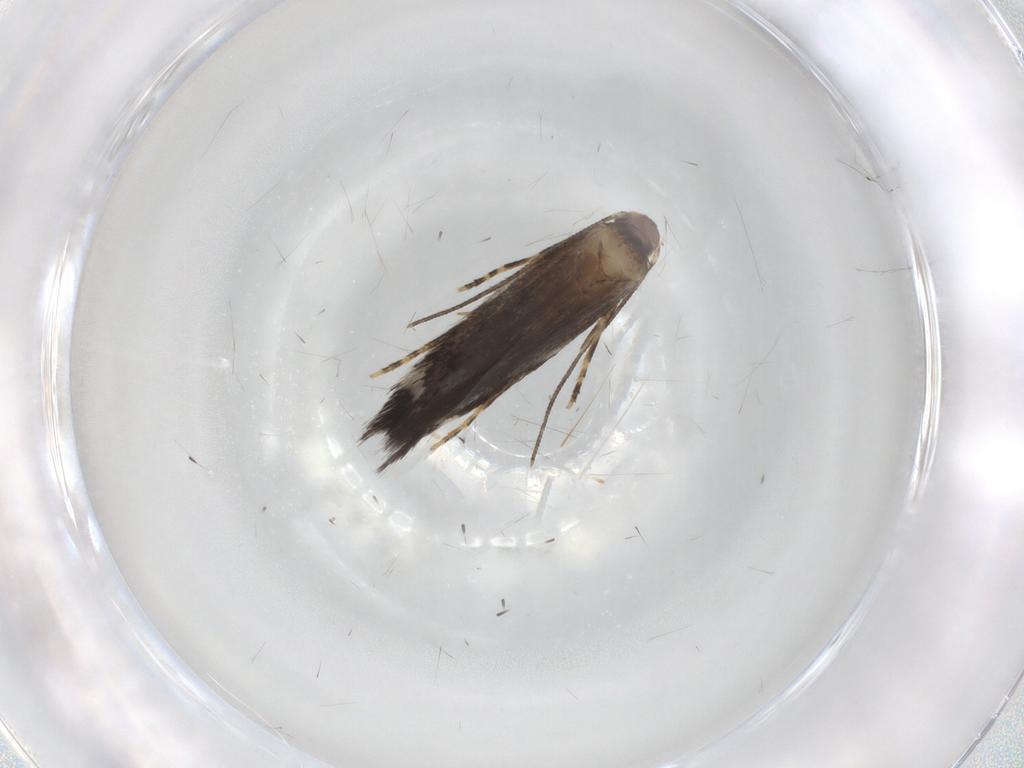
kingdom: Animalia
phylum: Arthropoda
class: Insecta
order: Lepidoptera
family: Elachistidae
